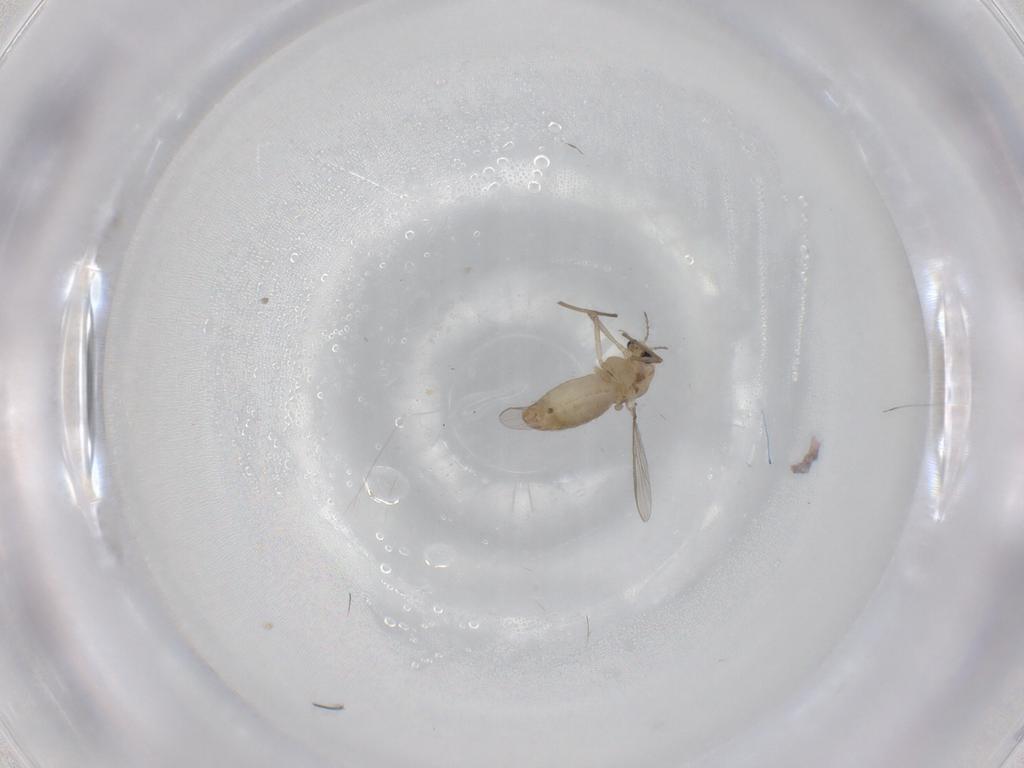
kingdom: Animalia
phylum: Arthropoda
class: Insecta
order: Diptera
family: Chironomidae
